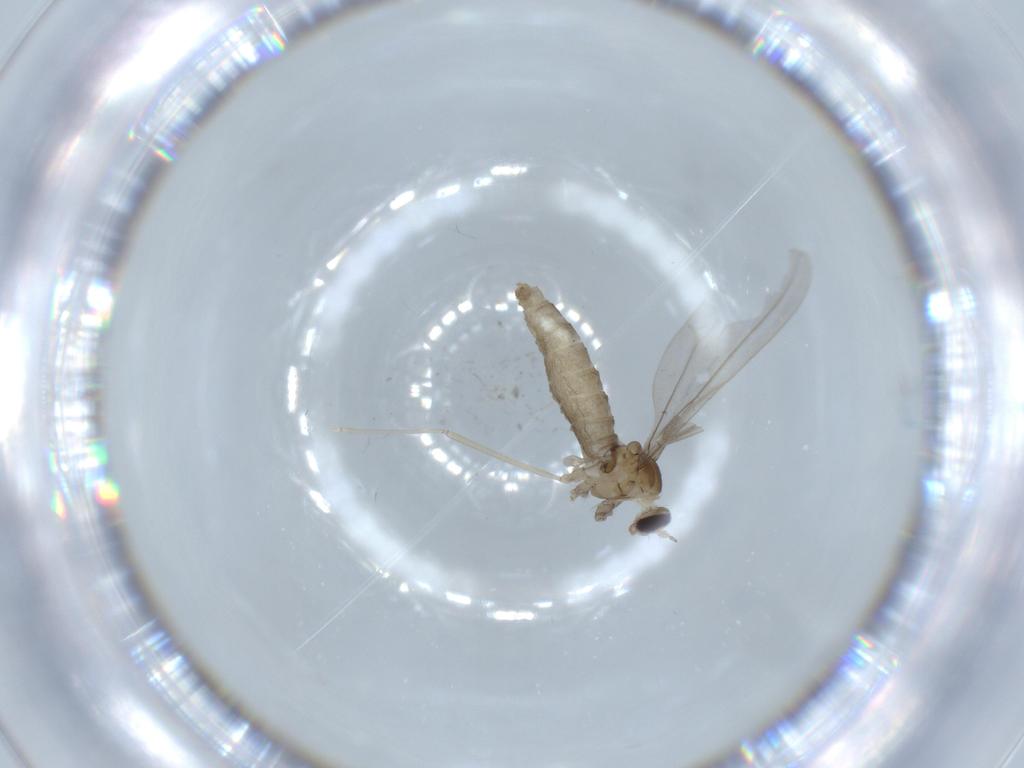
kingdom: Animalia
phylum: Arthropoda
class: Insecta
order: Diptera
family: Cecidomyiidae
